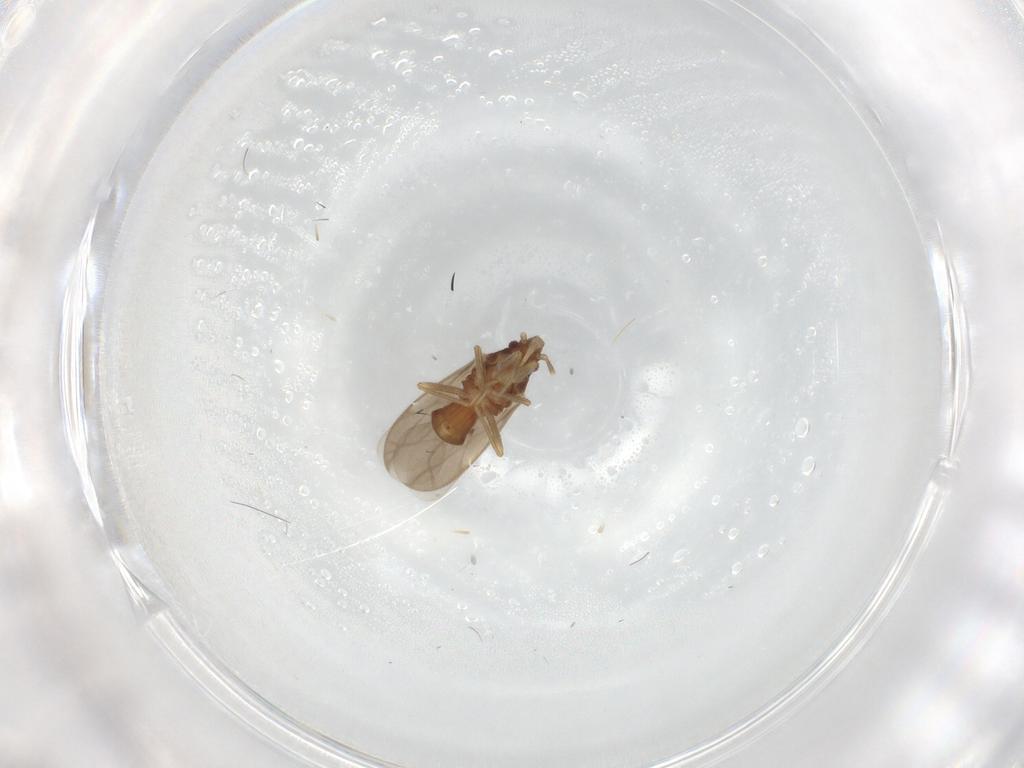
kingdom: Animalia
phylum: Arthropoda
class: Insecta
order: Hemiptera
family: Ceratocombidae
